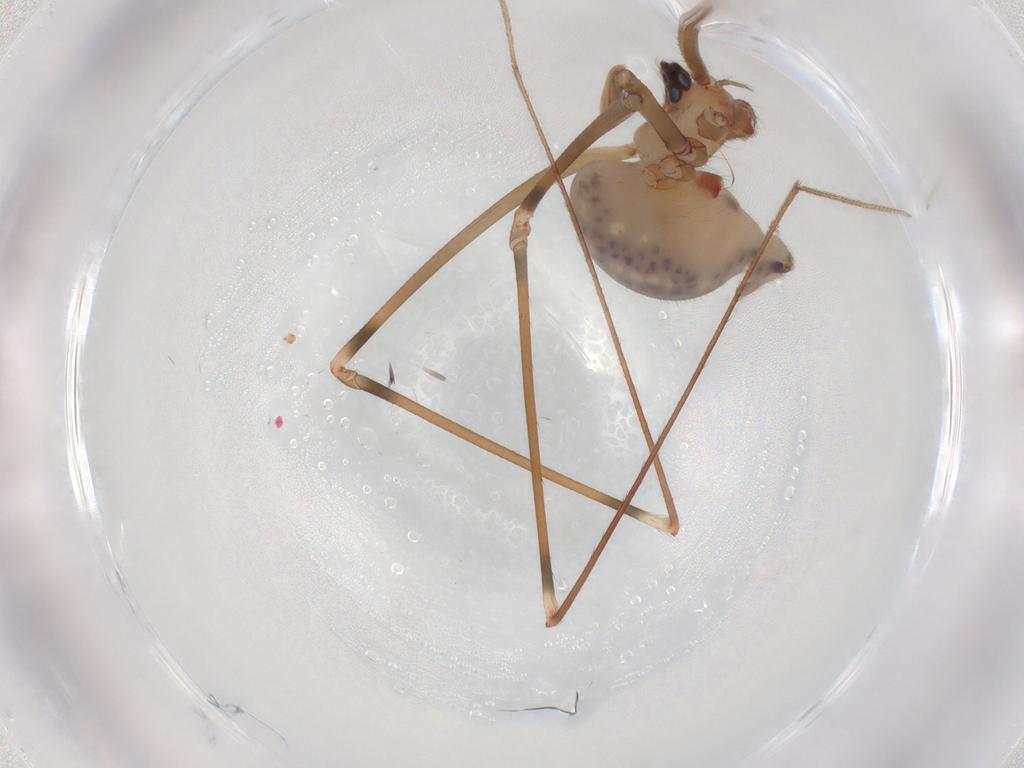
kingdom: Animalia
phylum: Arthropoda
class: Arachnida
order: Araneae
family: Pholcidae
